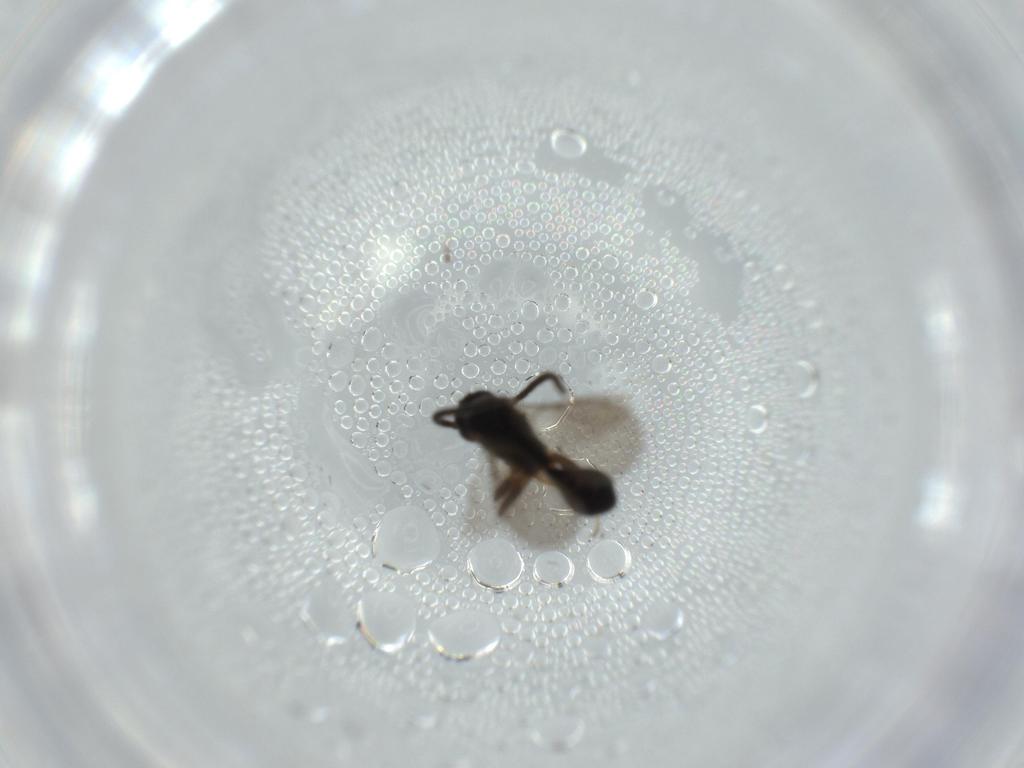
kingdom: Animalia
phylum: Arthropoda
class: Insecta
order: Hymenoptera
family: Bethylidae
